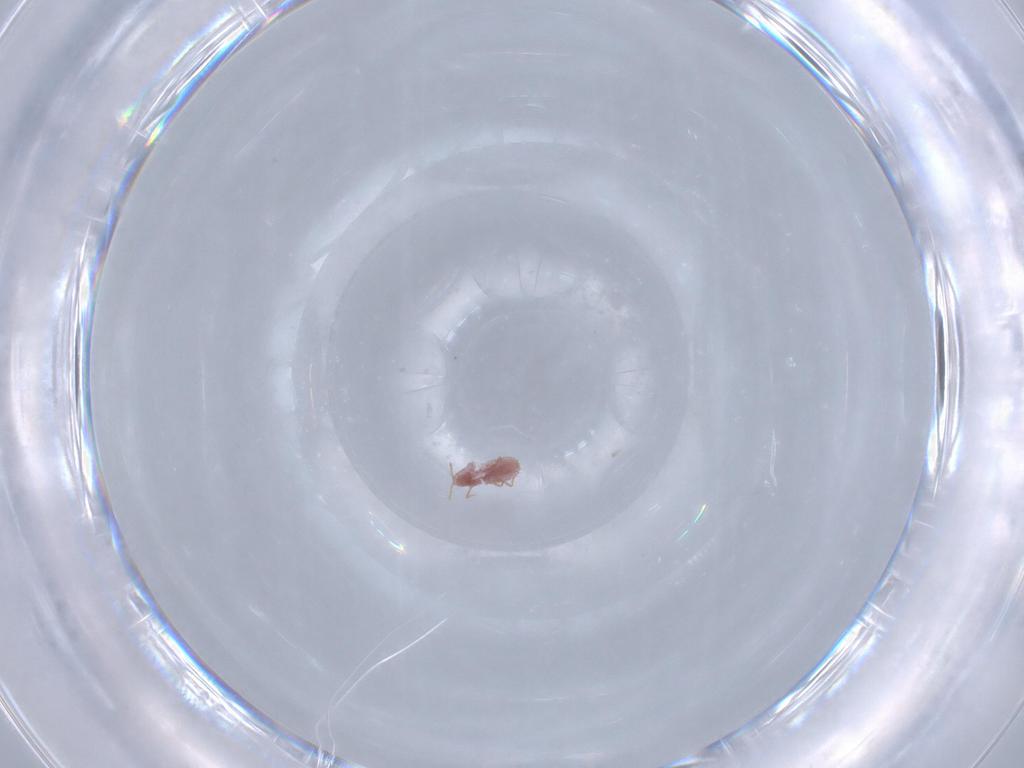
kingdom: Animalia
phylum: Arthropoda
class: Insecta
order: Hemiptera
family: Pseudococcidae
